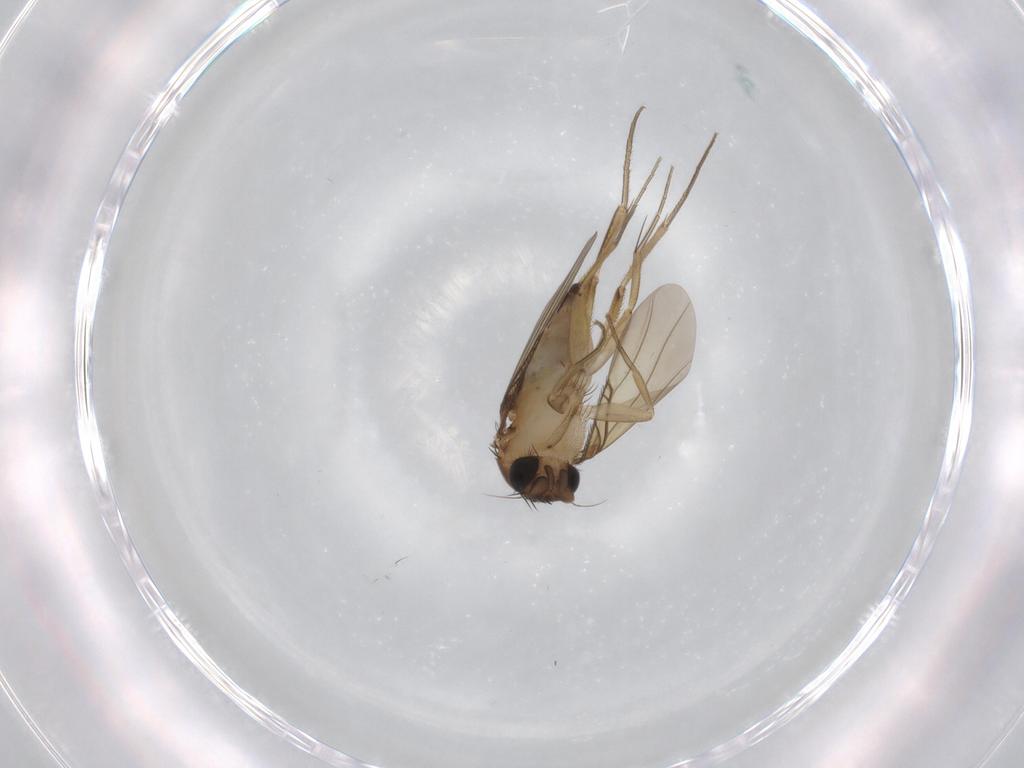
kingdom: Animalia
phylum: Arthropoda
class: Insecta
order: Diptera
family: Phoridae
